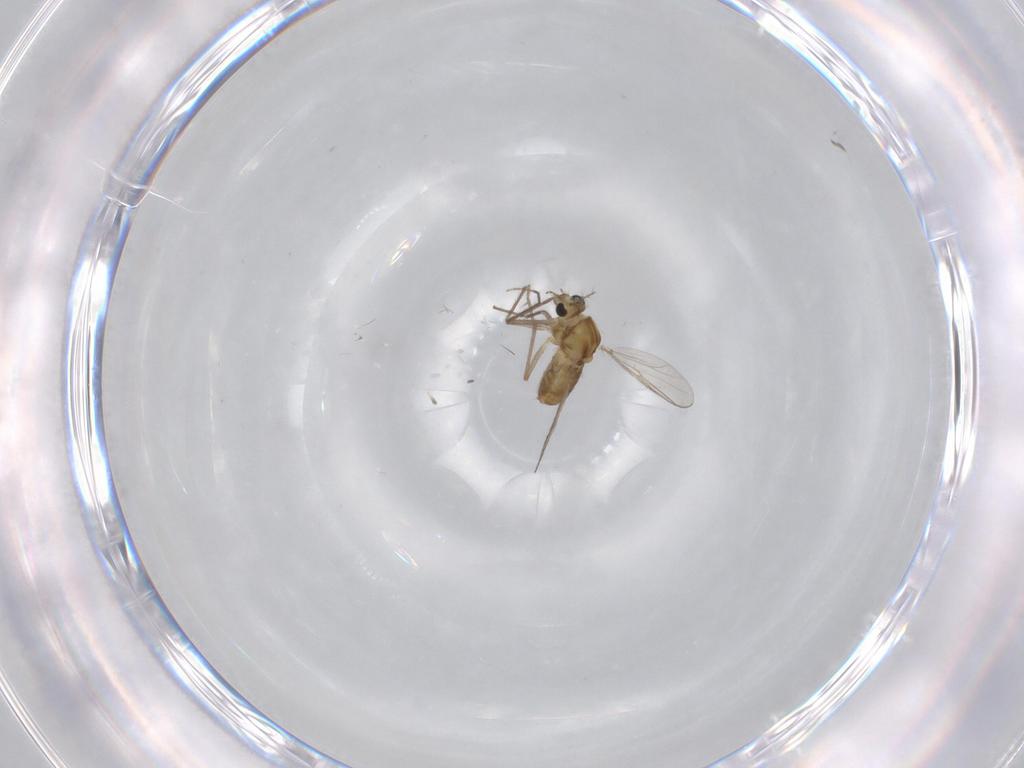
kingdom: Animalia
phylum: Arthropoda
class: Insecta
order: Diptera
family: Chironomidae
